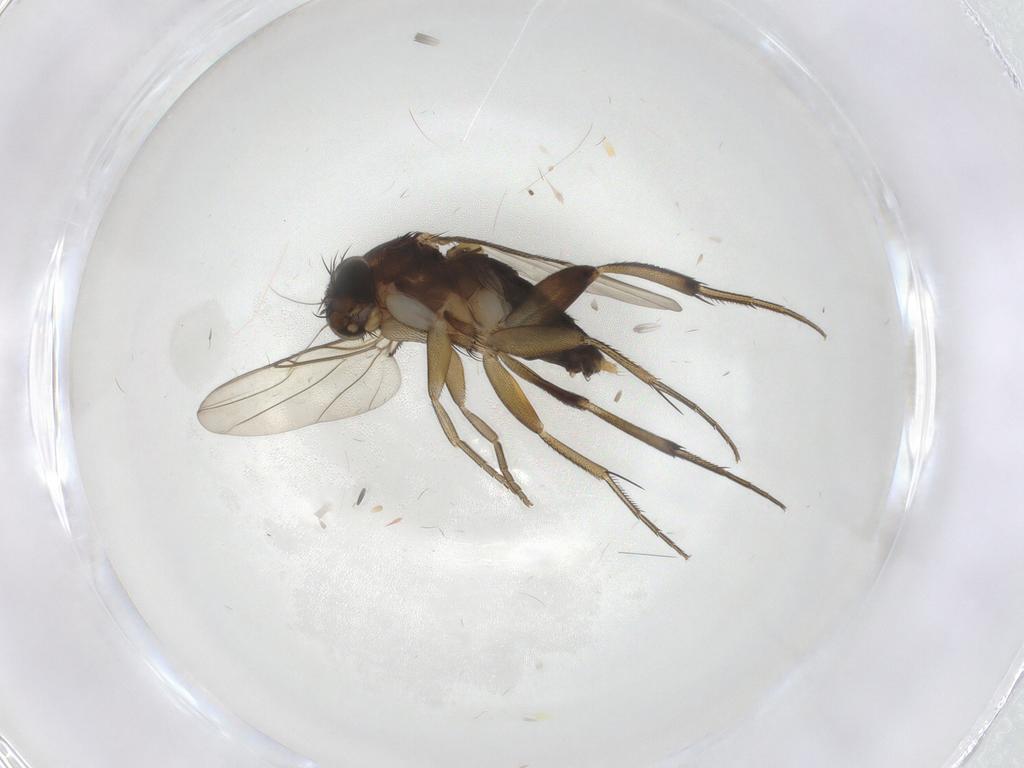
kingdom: Animalia
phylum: Arthropoda
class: Insecta
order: Diptera
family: Phoridae
